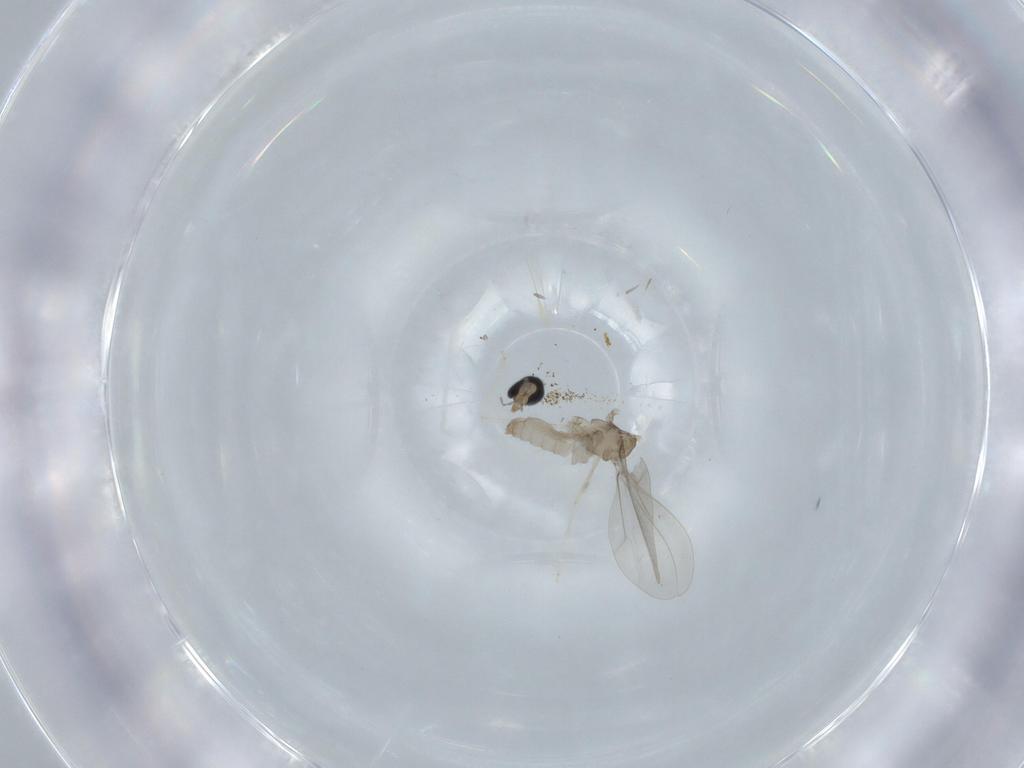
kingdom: Animalia
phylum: Arthropoda
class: Insecta
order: Diptera
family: Cecidomyiidae
